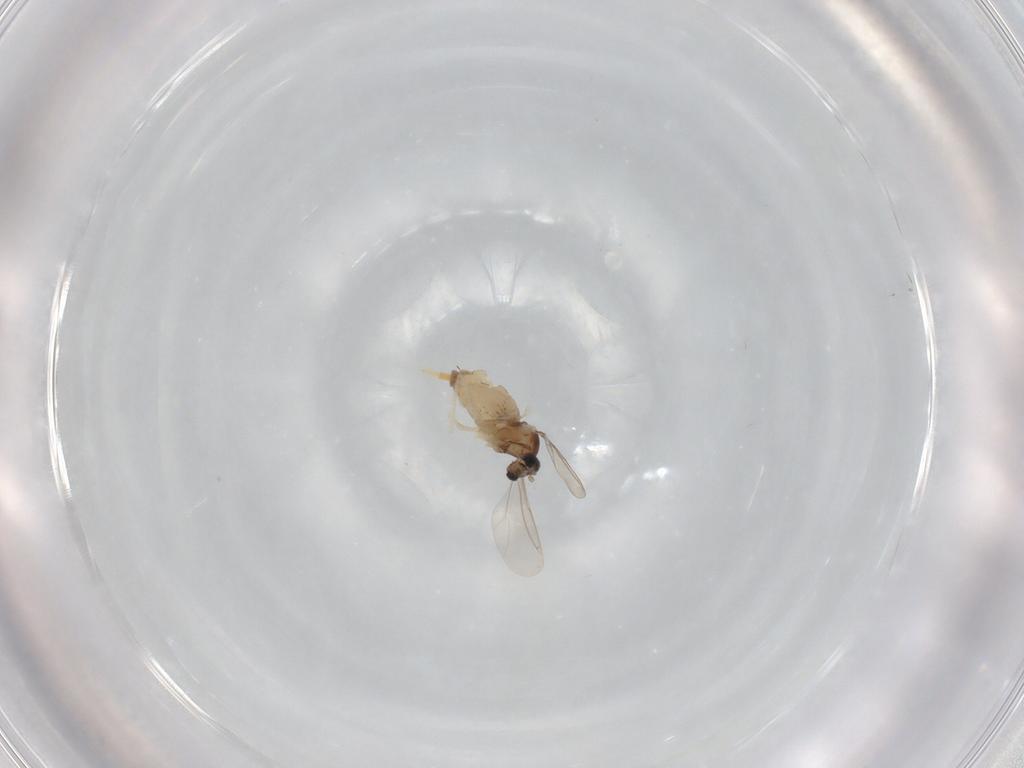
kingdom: Animalia
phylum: Arthropoda
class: Insecta
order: Diptera
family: Cecidomyiidae
